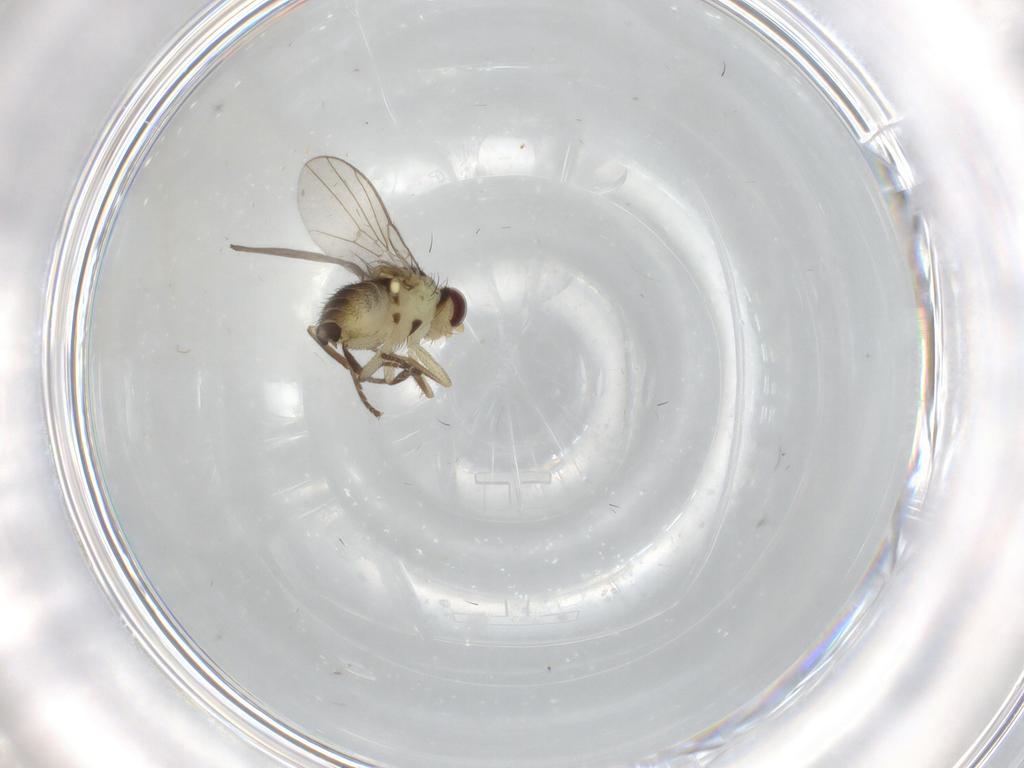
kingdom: Animalia
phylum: Arthropoda
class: Insecta
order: Diptera
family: Agromyzidae
